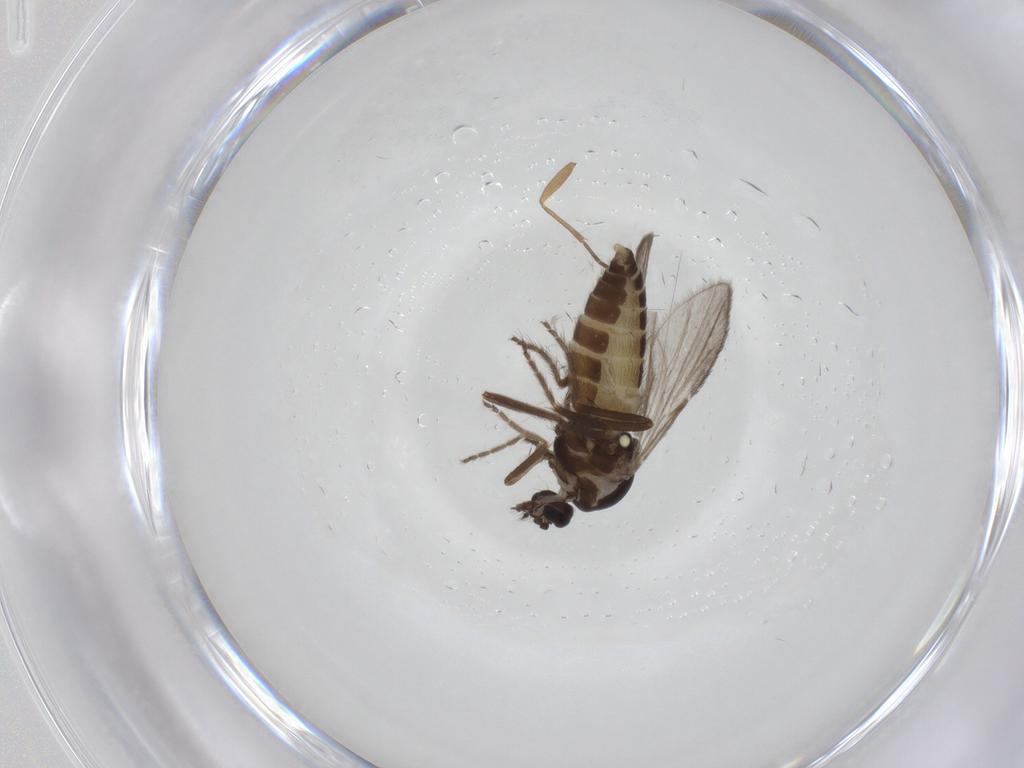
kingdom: Animalia
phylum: Arthropoda
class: Insecta
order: Diptera
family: Ceratopogonidae
